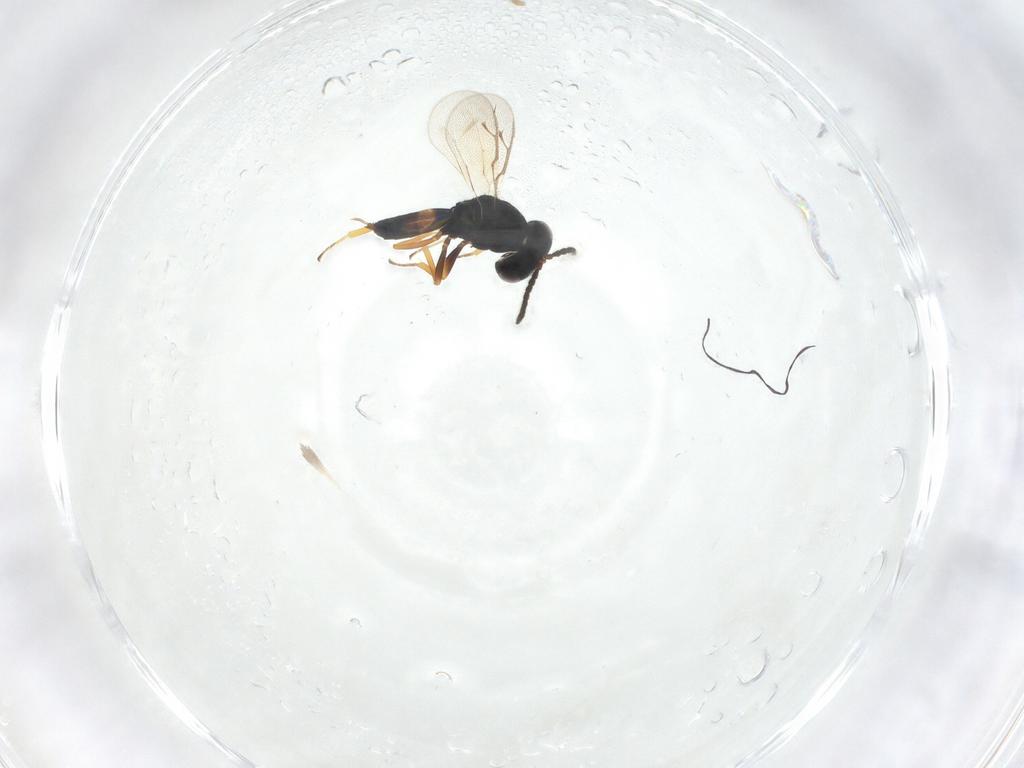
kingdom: Animalia
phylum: Arthropoda
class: Insecta
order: Hymenoptera
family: Pteromalidae
